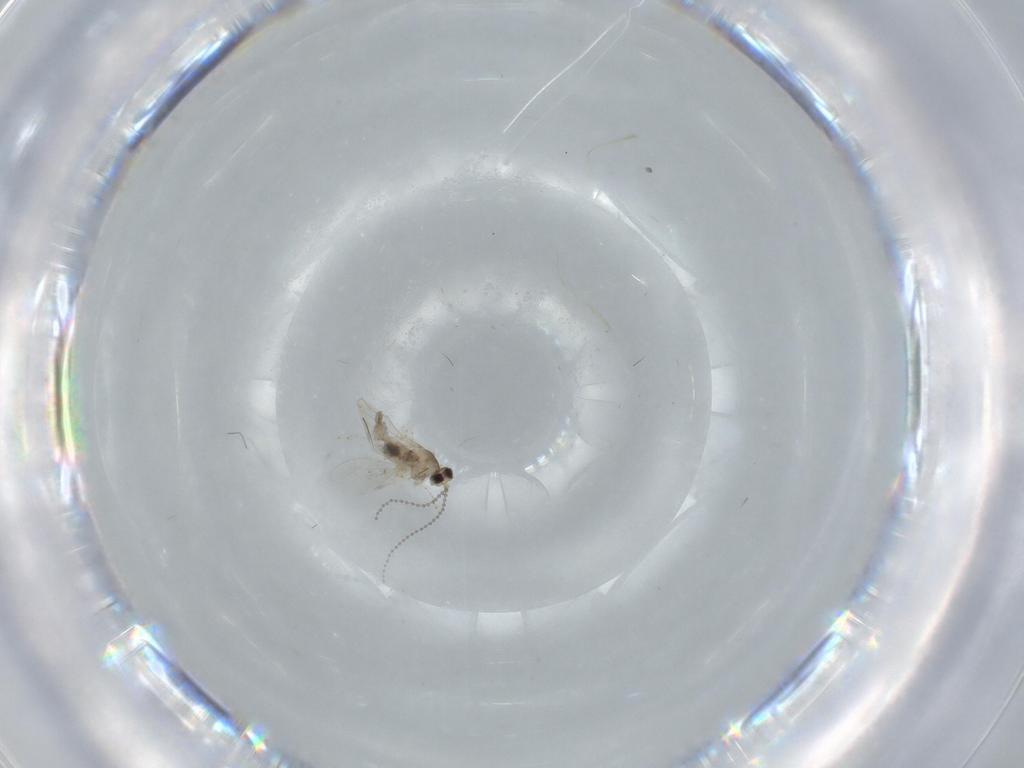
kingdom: Animalia
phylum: Arthropoda
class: Insecta
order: Diptera
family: Cecidomyiidae
